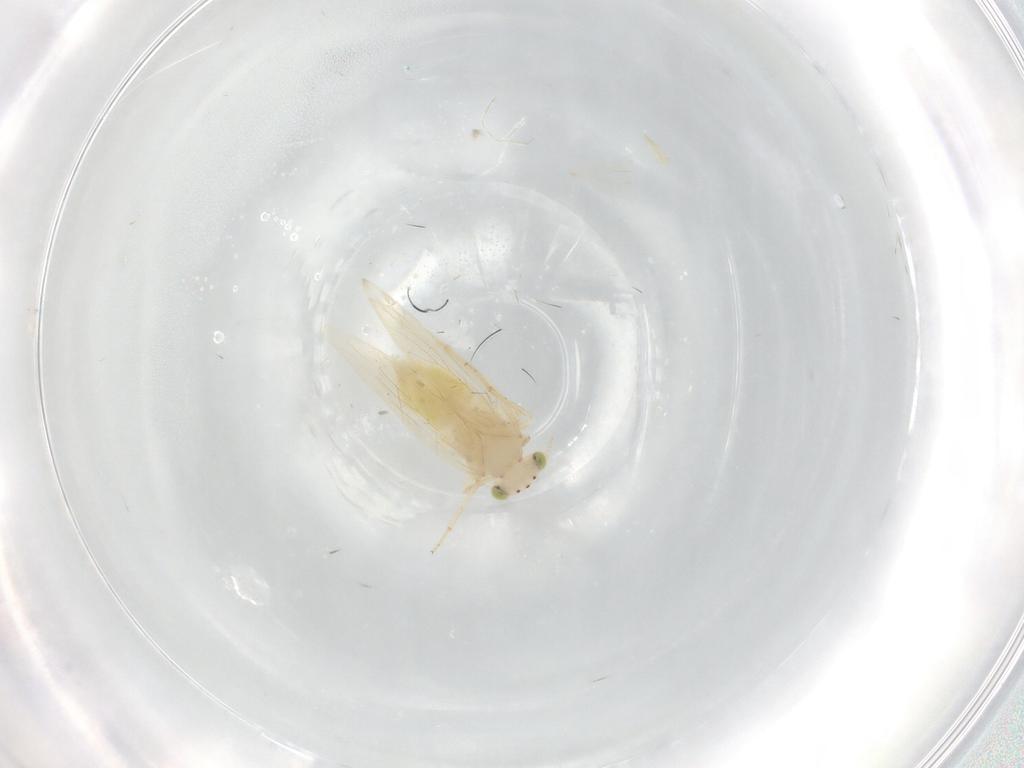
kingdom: Animalia
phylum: Arthropoda
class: Insecta
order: Psocodea
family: Lepidopsocidae
